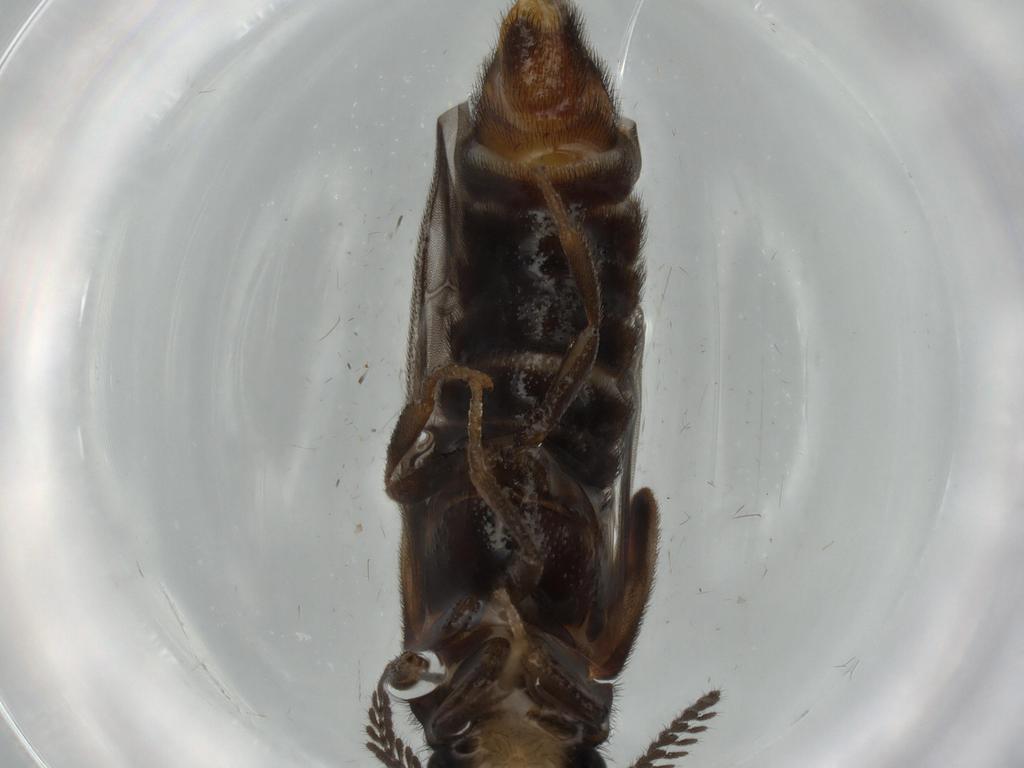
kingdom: Animalia
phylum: Arthropoda
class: Insecta
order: Coleoptera
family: Phengodidae
